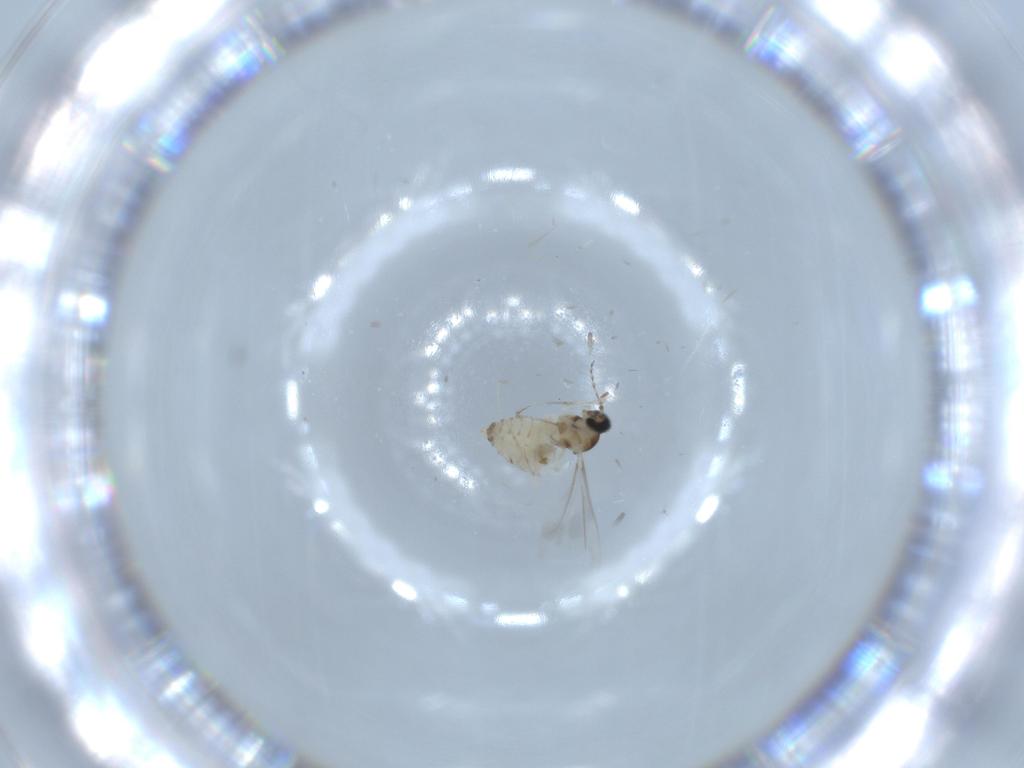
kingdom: Animalia
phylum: Arthropoda
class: Insecta
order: Diptera
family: Cecidomyiidae
